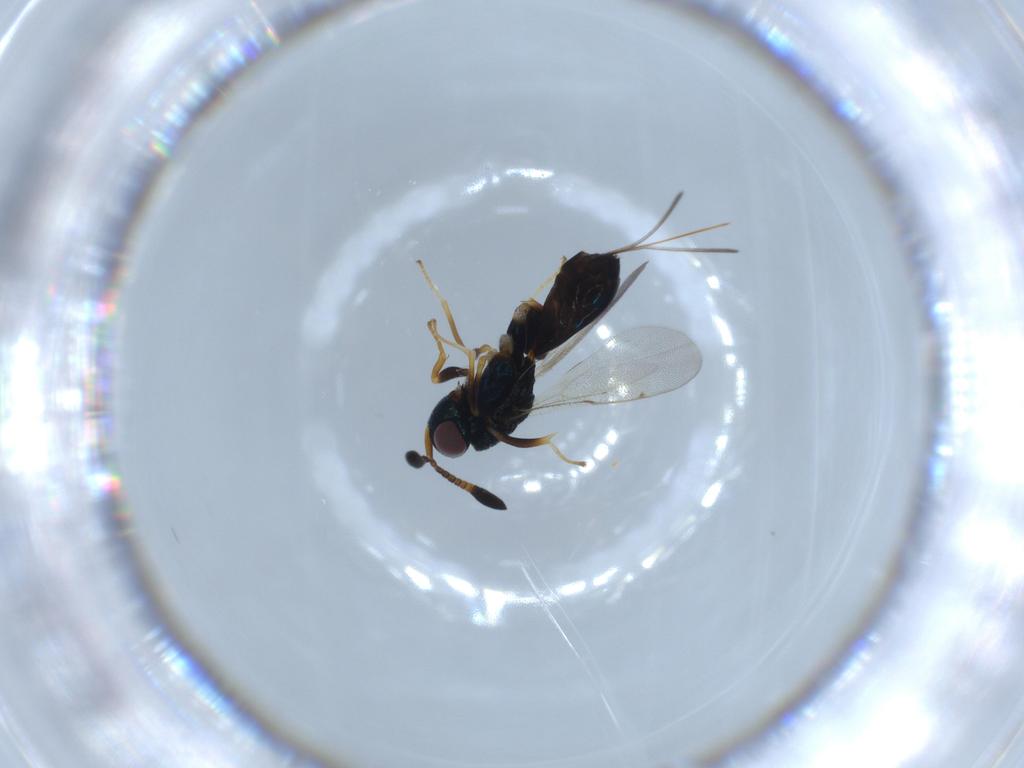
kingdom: Animalia
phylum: Arthropoda
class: Insecta
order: Hymenoptera
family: Torymidae
